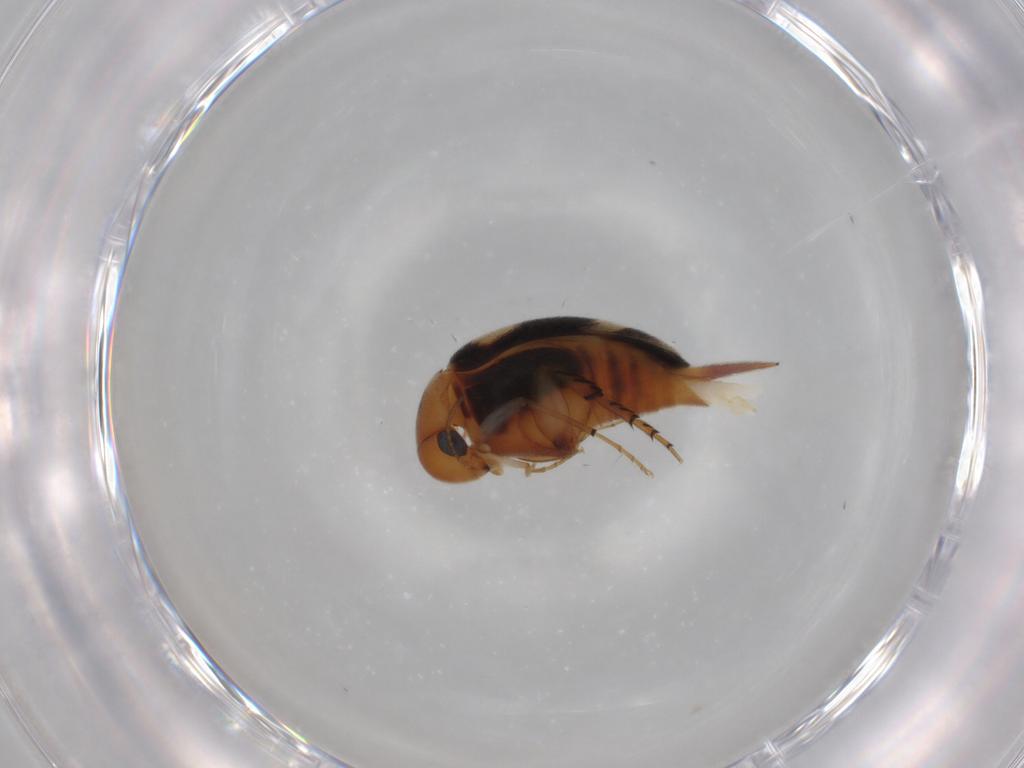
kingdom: Animalia
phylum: Arthropoda
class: Insecta
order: Coleoptera
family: Mordellidae
